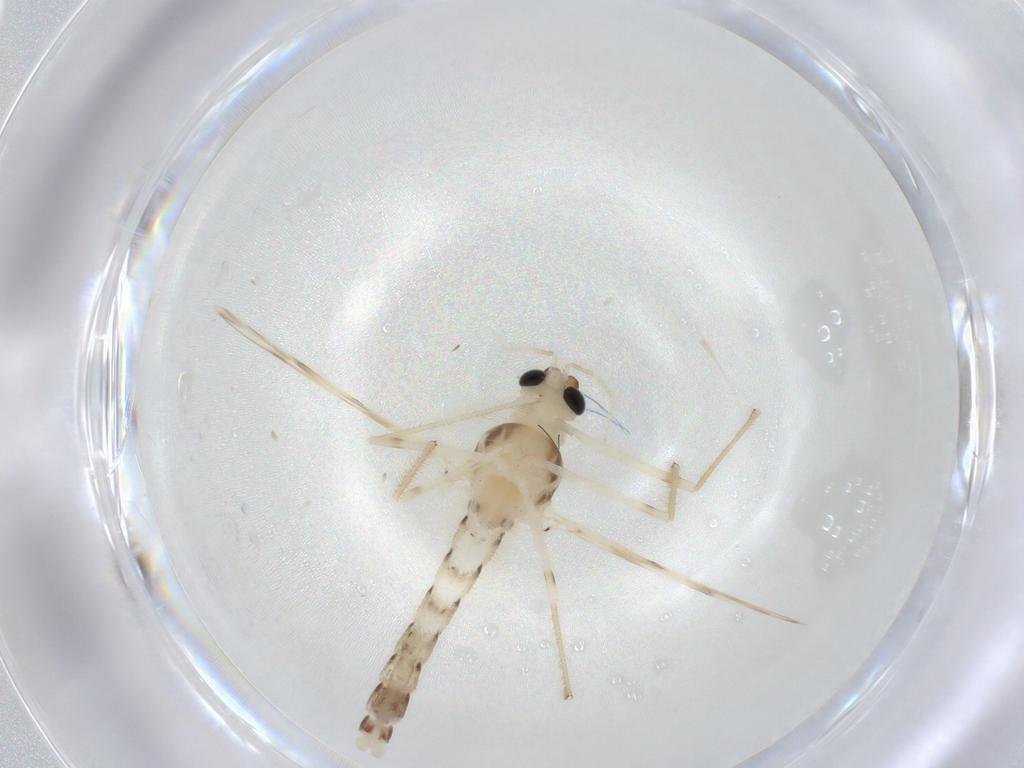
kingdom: Animalia
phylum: Arthropoda
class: Insecta
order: Diptera
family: Chironomidae
